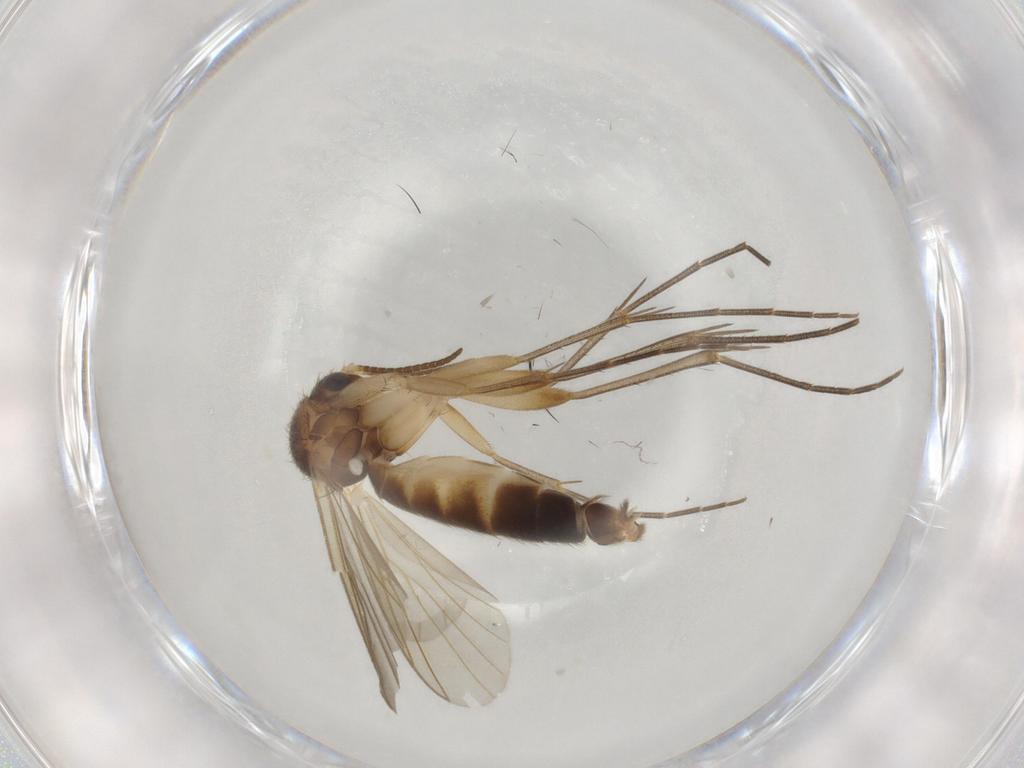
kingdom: Animalia
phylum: Arthropoda
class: Insecta
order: Diptera
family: Mycetophilidae
